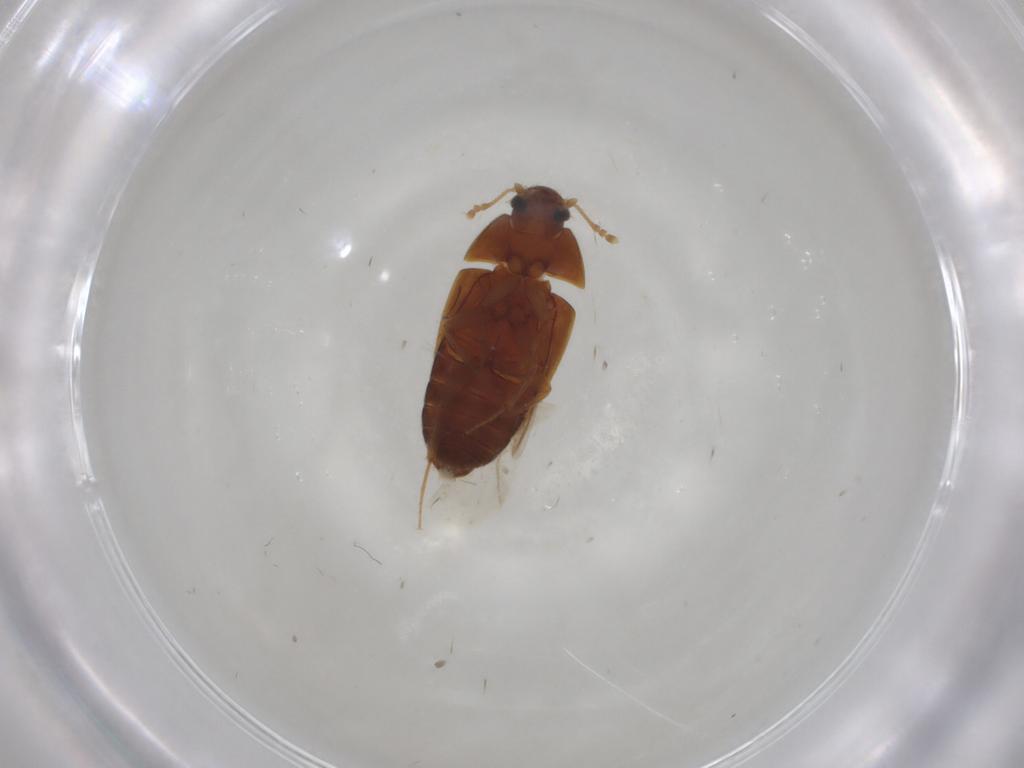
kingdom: Animalia
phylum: Arthropoda
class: Insecta
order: Coleoptera
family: Mycetophagidae
